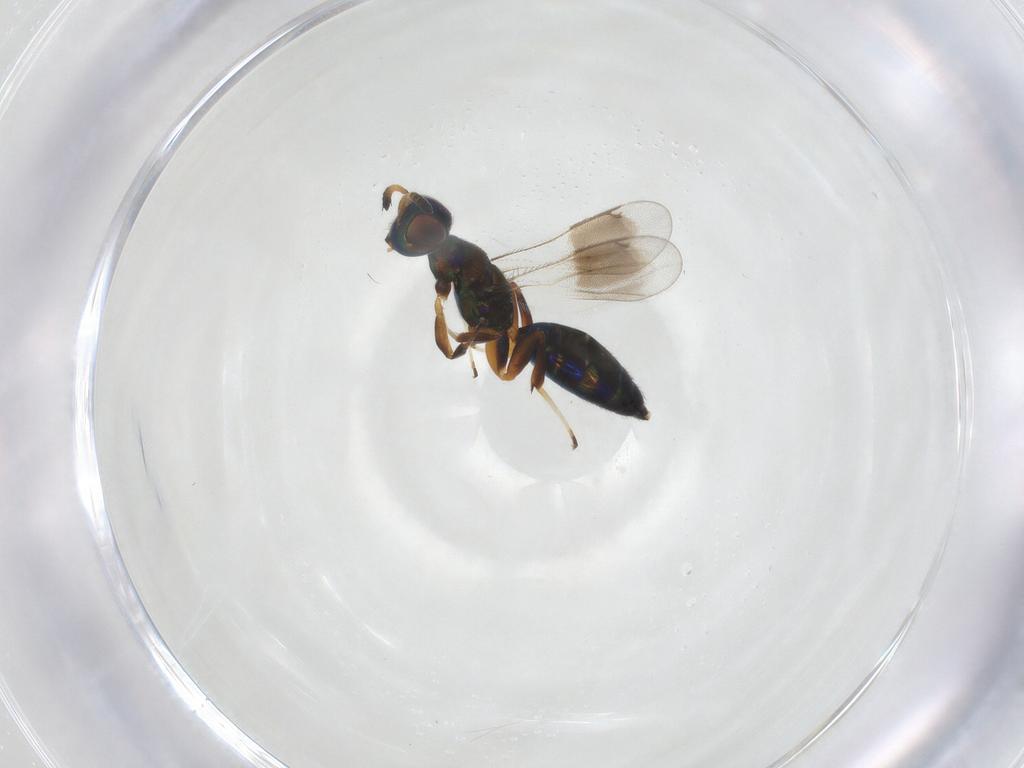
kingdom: Animalia
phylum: Arthropoda
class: Insecta
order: Hymenoptera
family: Cleonyminae
